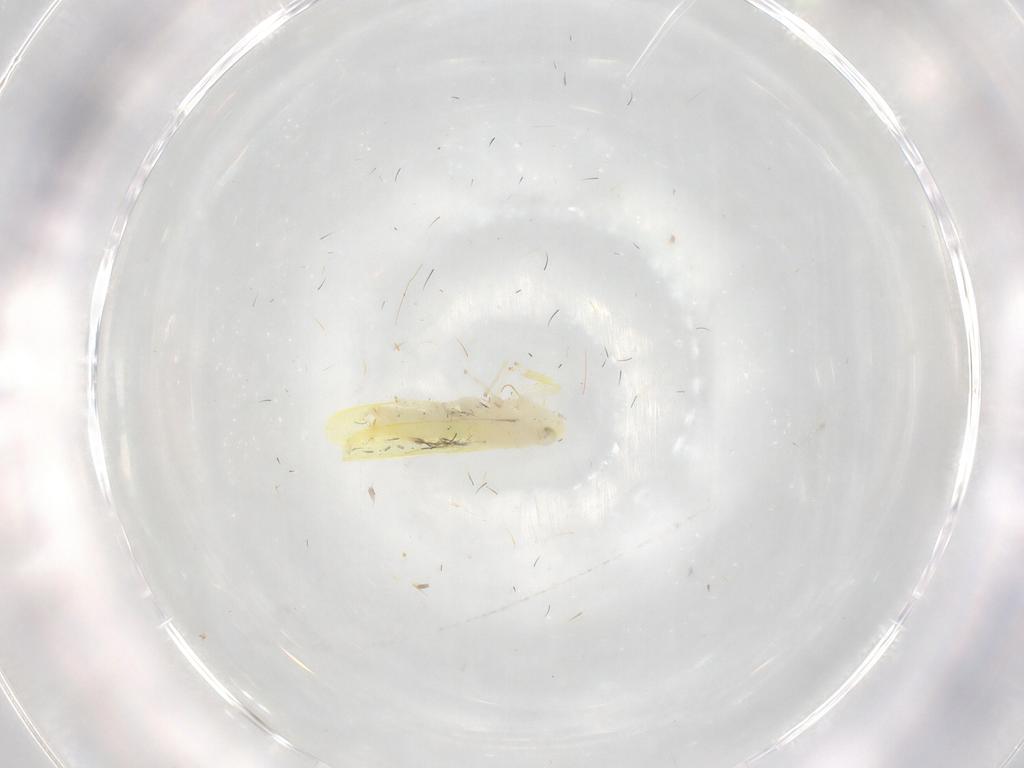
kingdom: Animalia
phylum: Arthropoda
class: Insecta
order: Hemiptera
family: Cicadellidae
